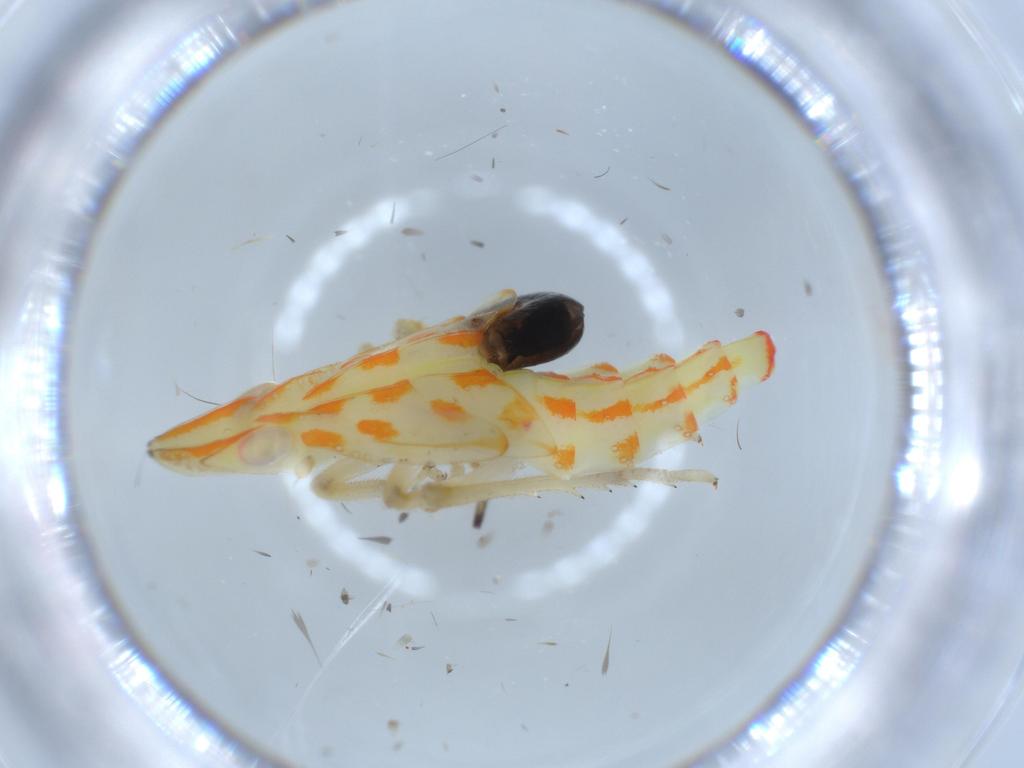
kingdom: Animalia
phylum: Arthropoda
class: Insecta
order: Hemiptera
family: Tropiduchidae
